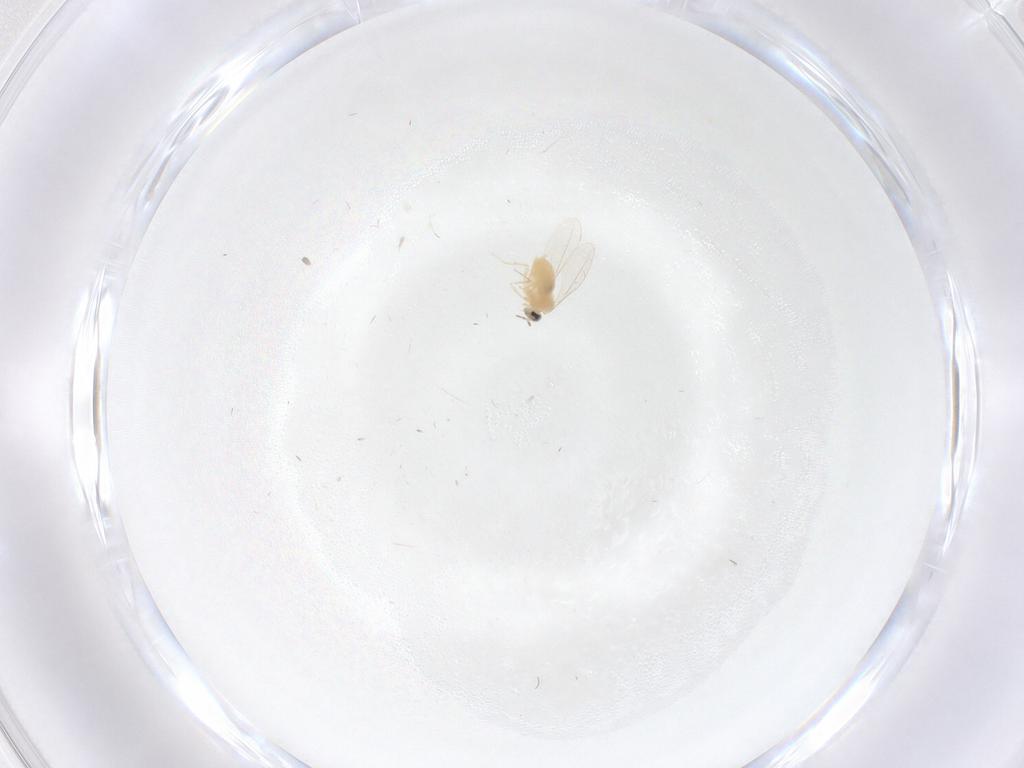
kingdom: Animalia
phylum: Arthropoda
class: Insecta
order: Diptera
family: Cecidomyiidae
